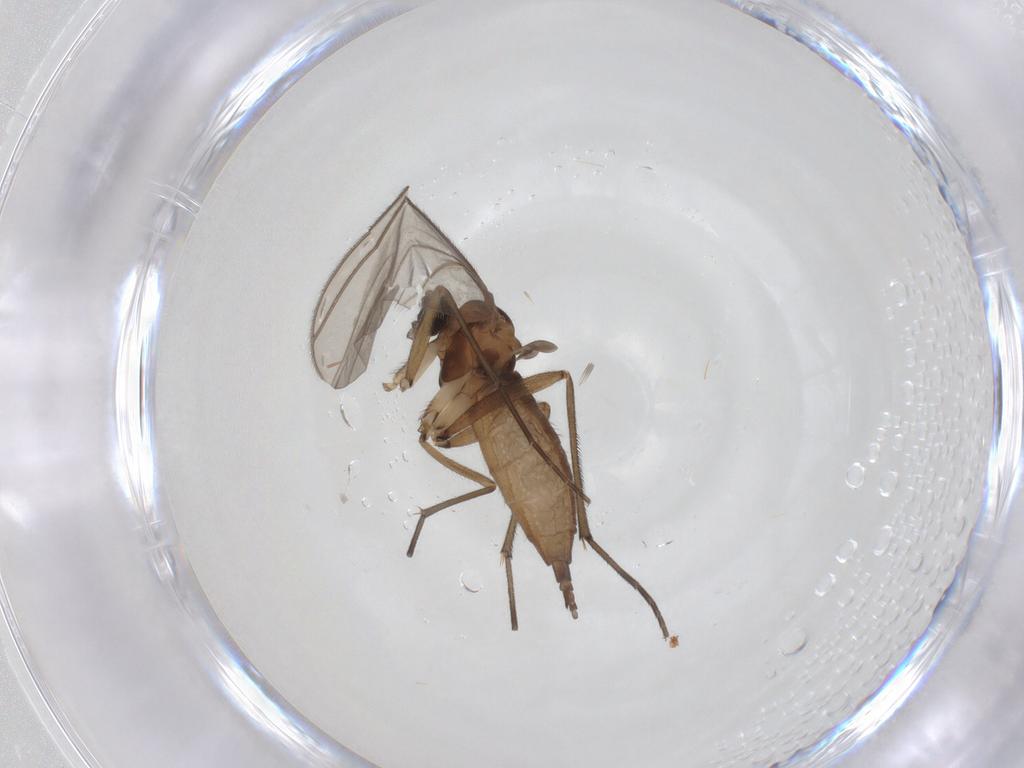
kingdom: Animalia
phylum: Arthropoda
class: Insecta
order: Diptera
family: Sciaridae
